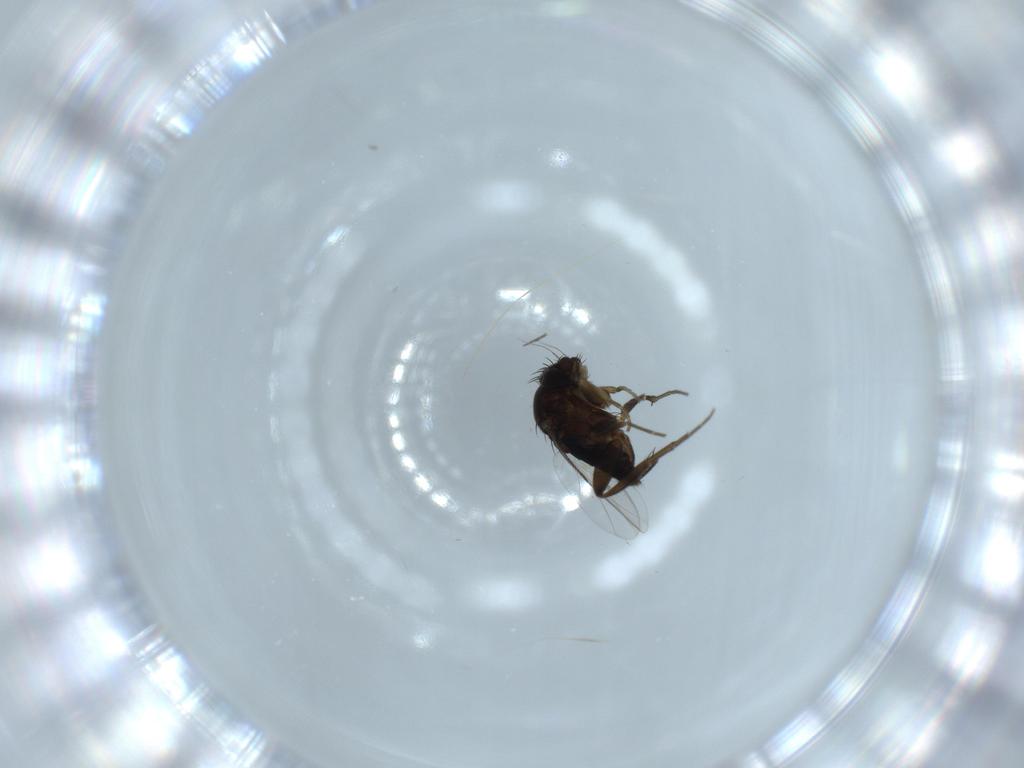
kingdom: Animalia
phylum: Arthropoda
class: Insecta
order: Diptera
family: Phoridae
